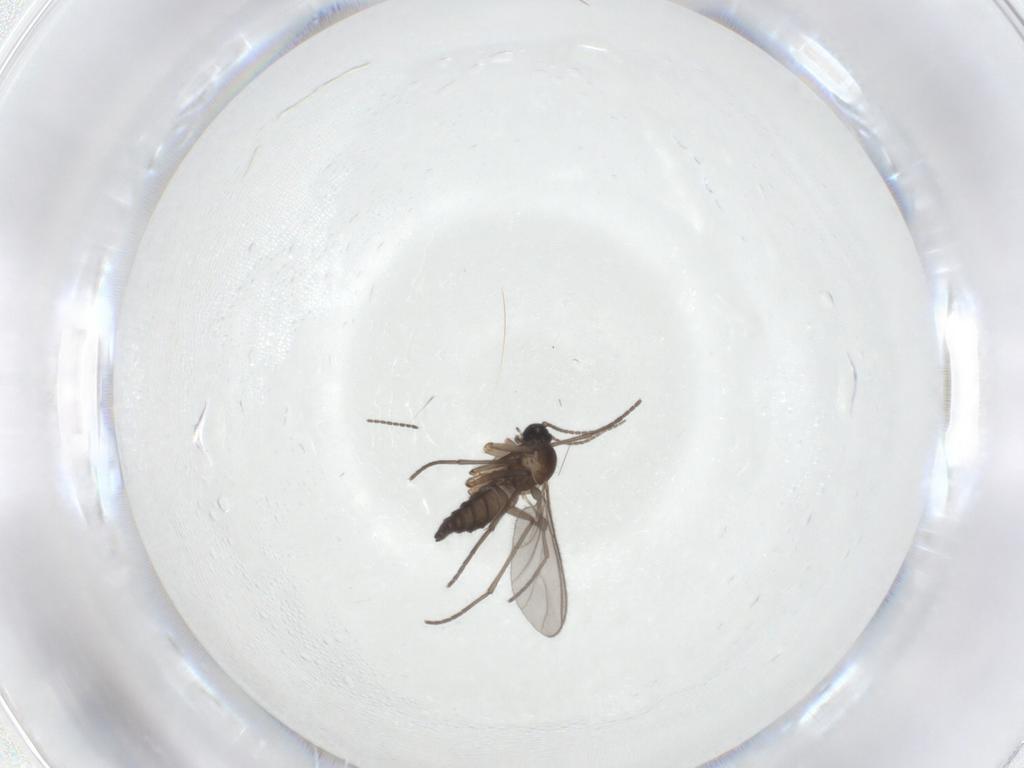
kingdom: Animalia
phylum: Arthropoda
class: Insecta
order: Diptera
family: Sciaridae
